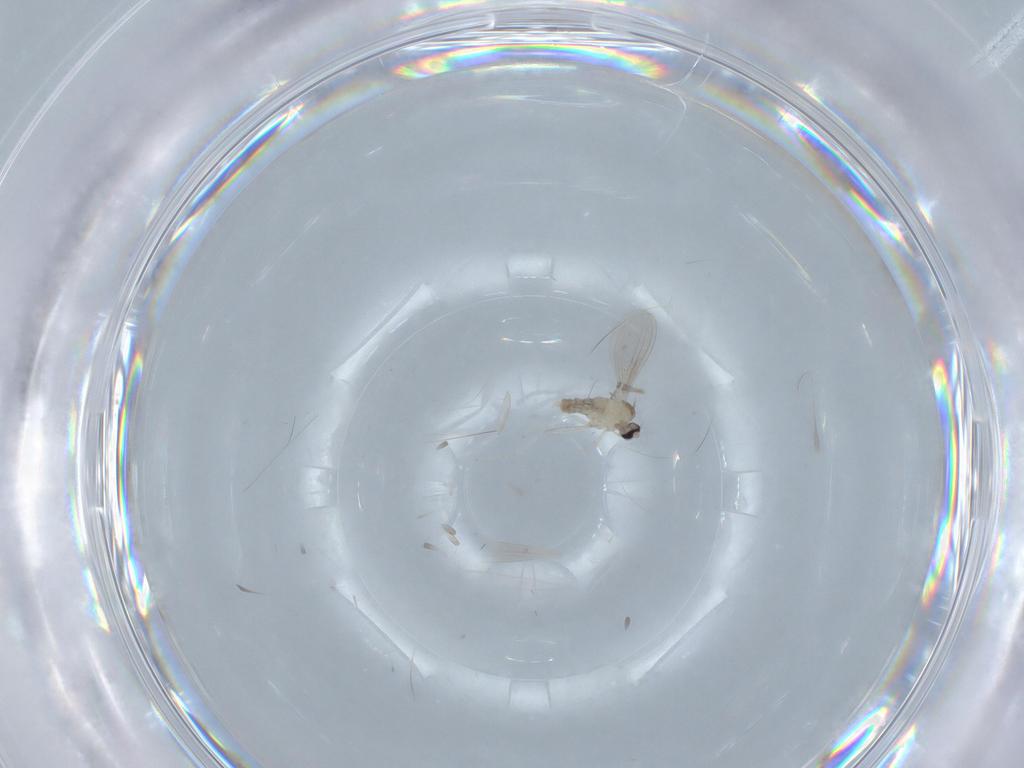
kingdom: Animalia
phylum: Arthropoda
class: Insecta
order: Diptera
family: Cecidomyiidae
